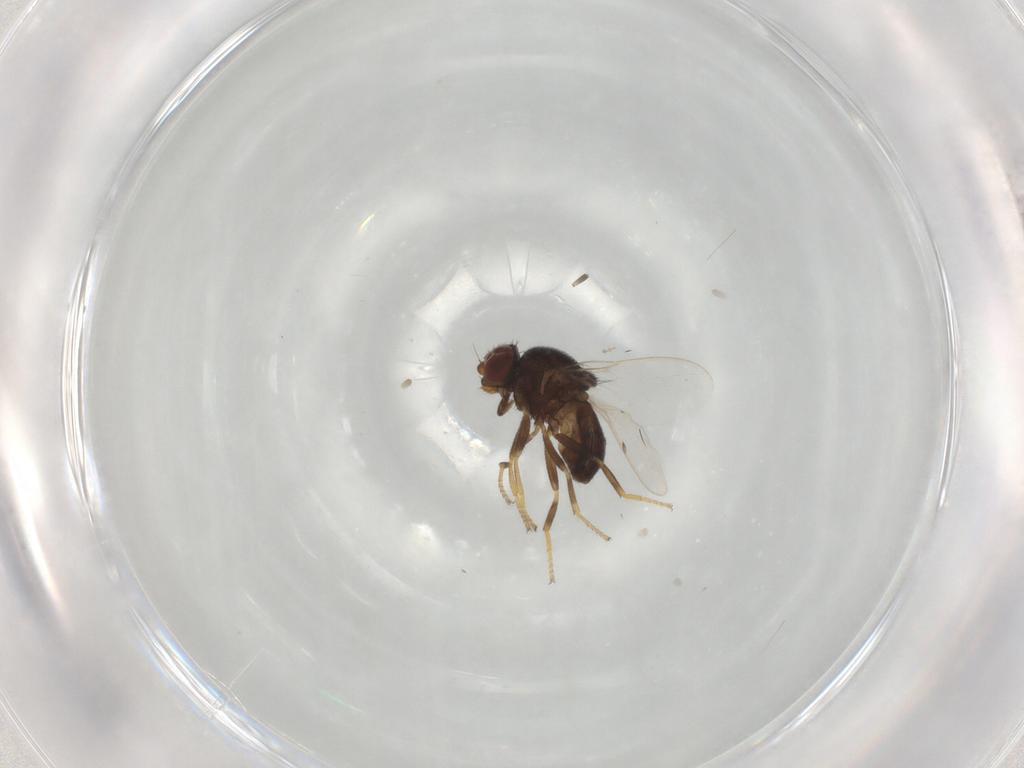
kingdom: Animalia
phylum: Arthropoda
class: Insecta
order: Diptera
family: Chloropidae
